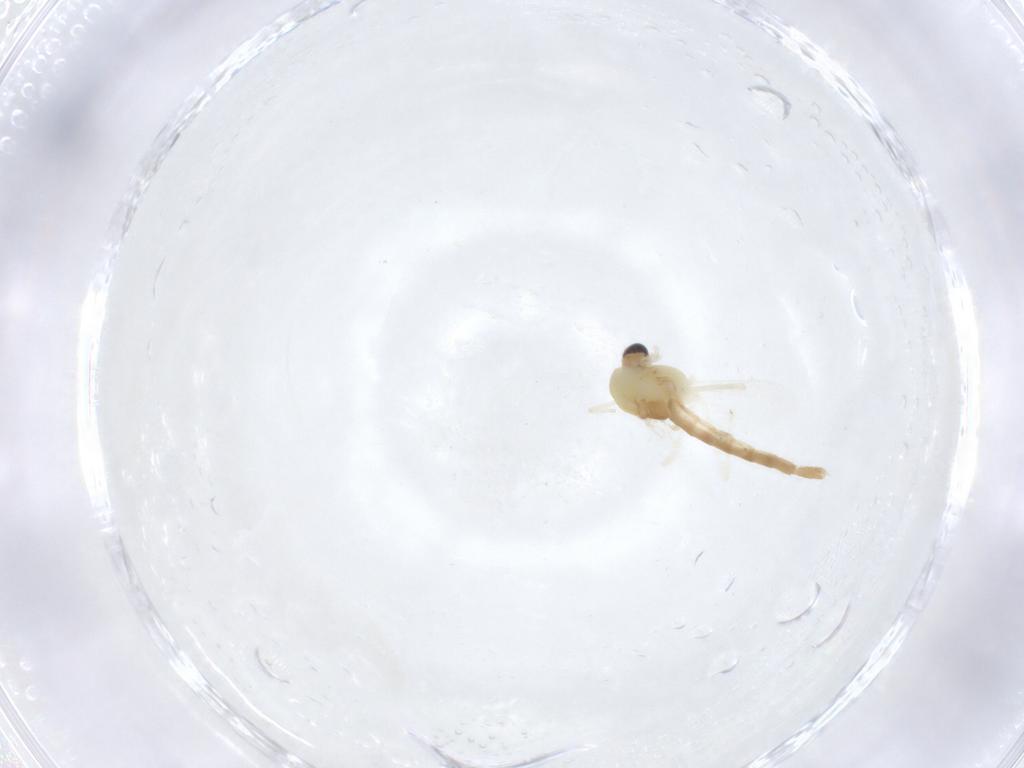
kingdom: Animalia
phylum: Arthropoda
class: Insecta
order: Diptera
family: Chironomidae
